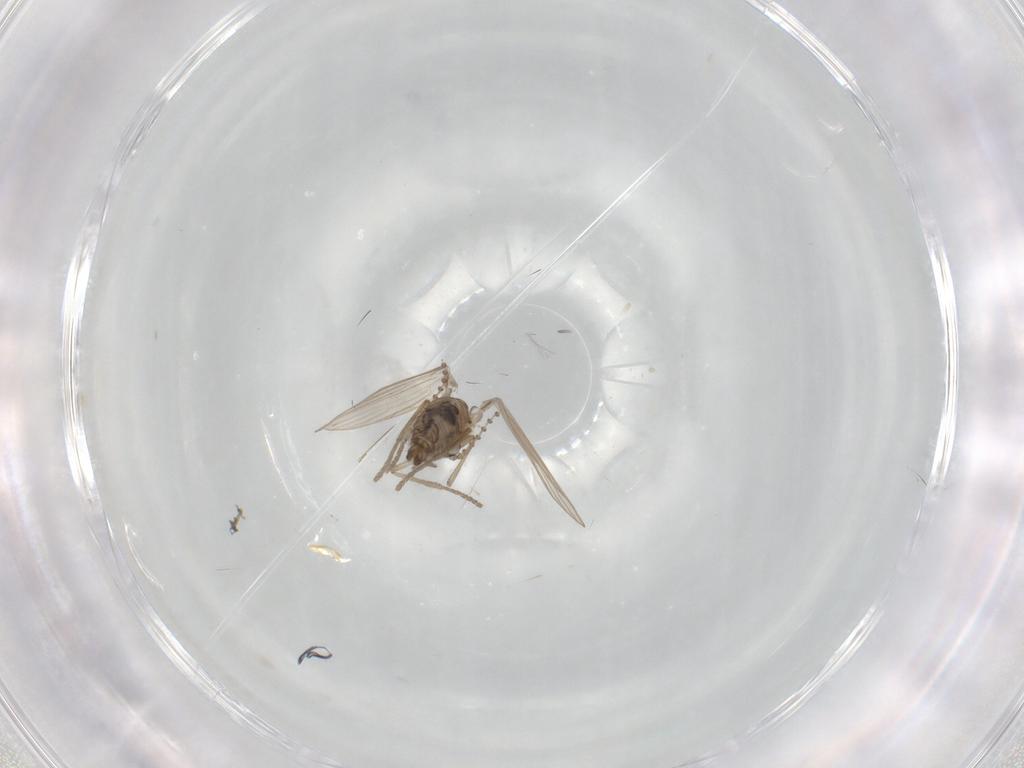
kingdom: Animalia
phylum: Arthropoda
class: Insecta
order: Diptera
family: Psychodidae
